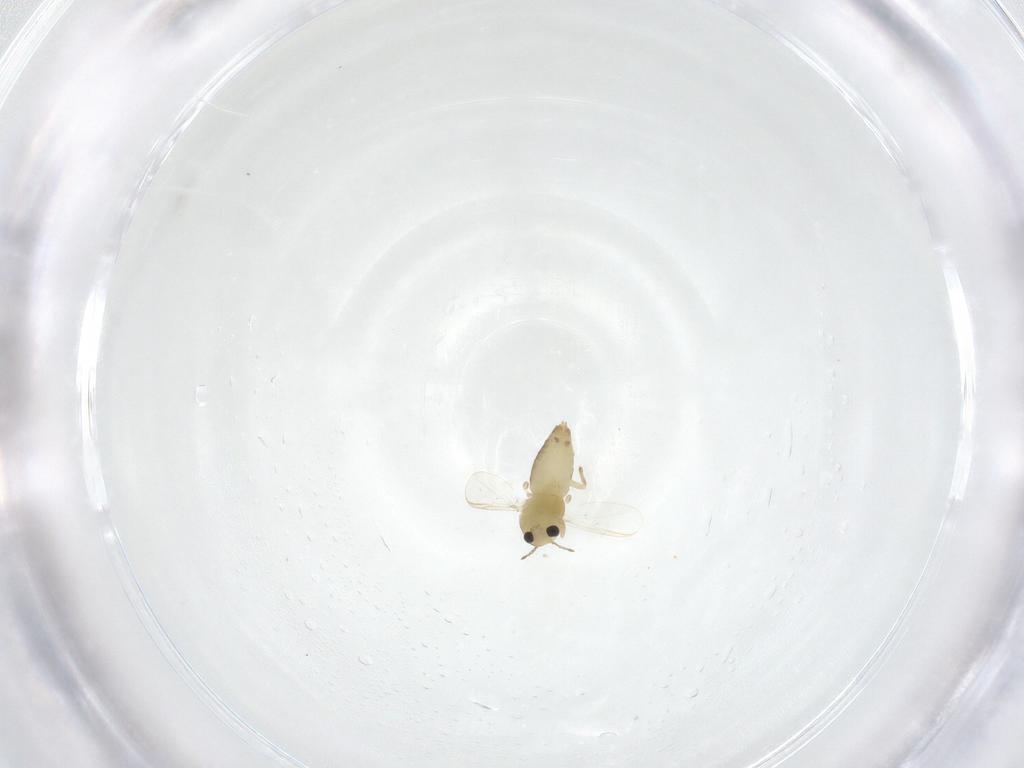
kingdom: Animalia
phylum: Arthropoda
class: Insecta
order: Diptera
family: Chironomidae
